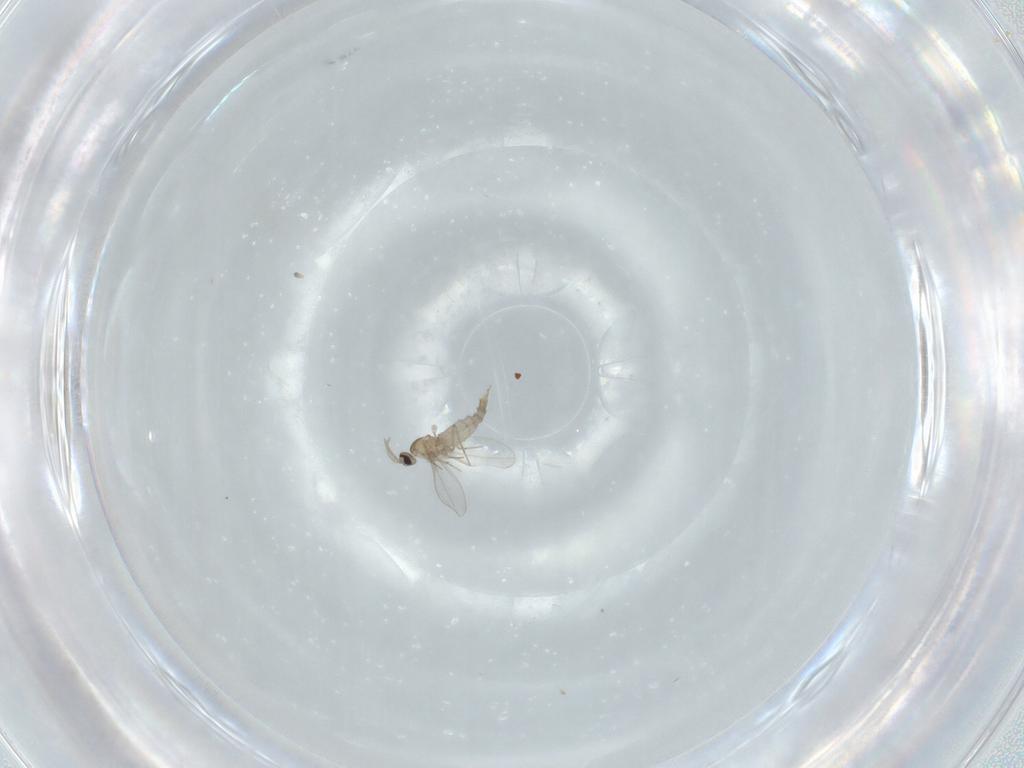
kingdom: Animalia
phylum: Arthropoda
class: Insecta
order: Diptera
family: Cecidomyiidae
